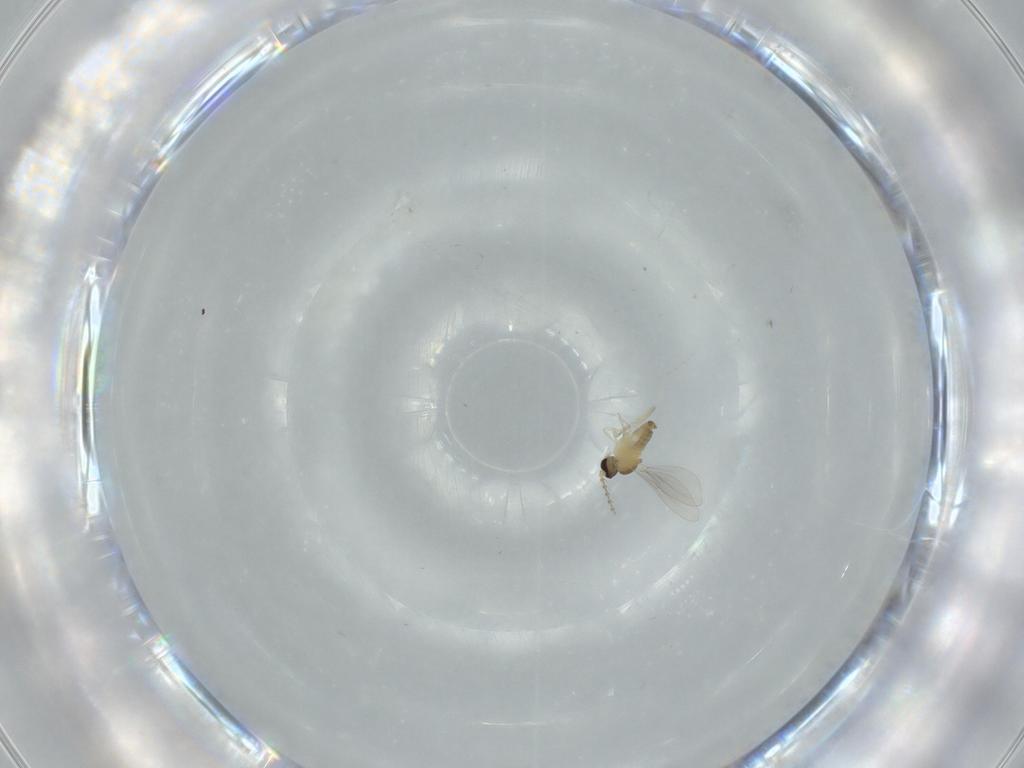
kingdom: Animalia
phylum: Arthropoda
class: Insecta
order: Diptera
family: Cecidomyiidae
